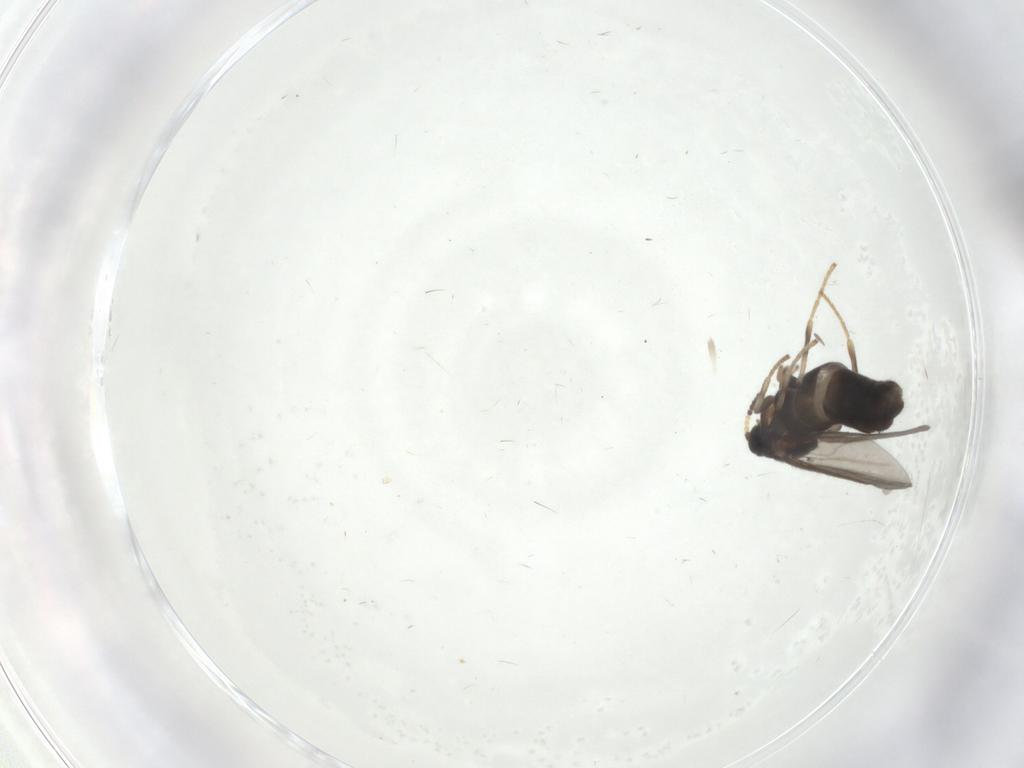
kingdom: Animalia
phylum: Arthropoda
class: Insecta
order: Diptera
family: Scatopsidae
